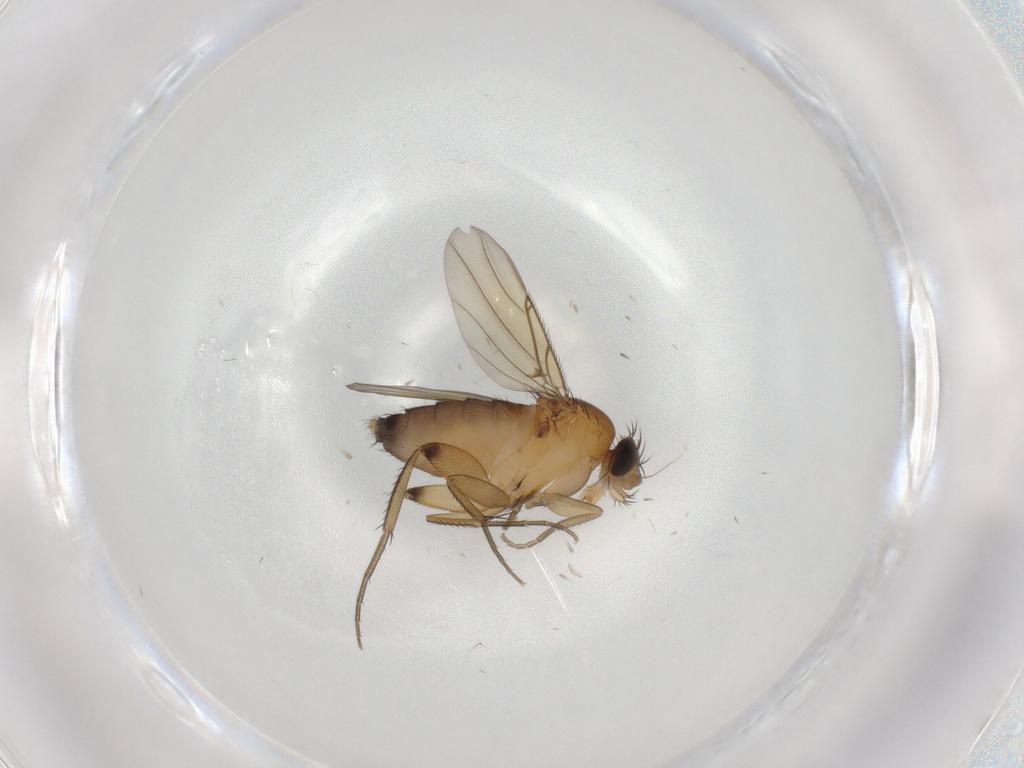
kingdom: Animalia
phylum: Arthropoda
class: Insecta
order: Diptera
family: Phoridae
